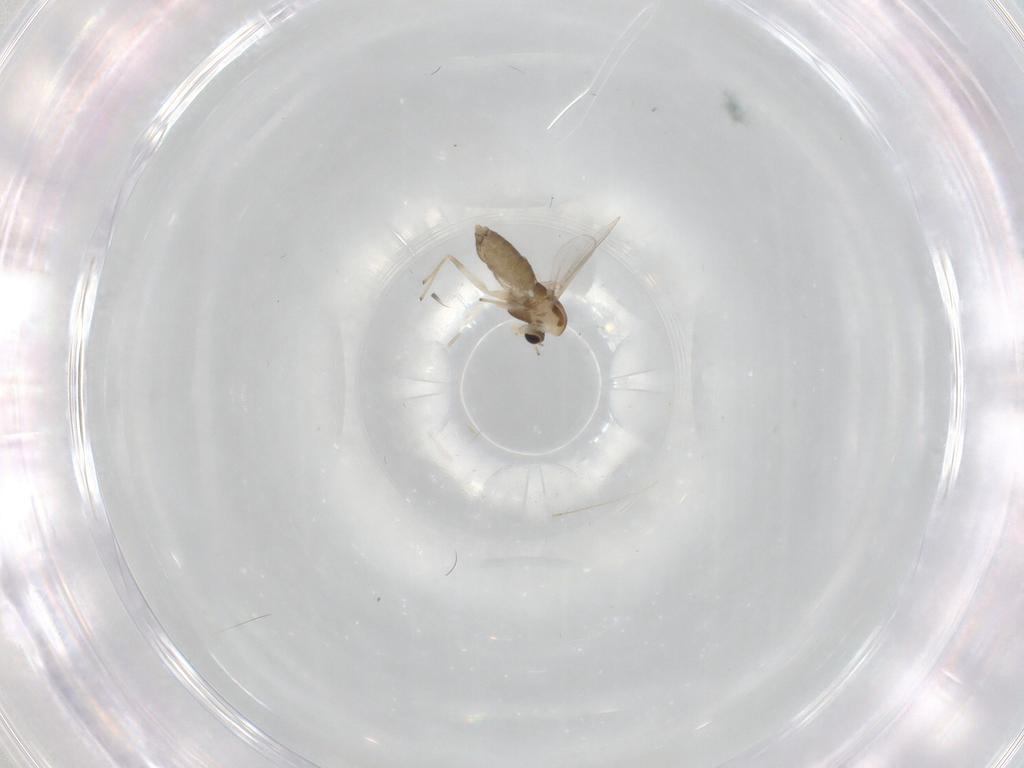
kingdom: Animalia
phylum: Arthropoda
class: Insecta
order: Diptera
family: Chironomidae
